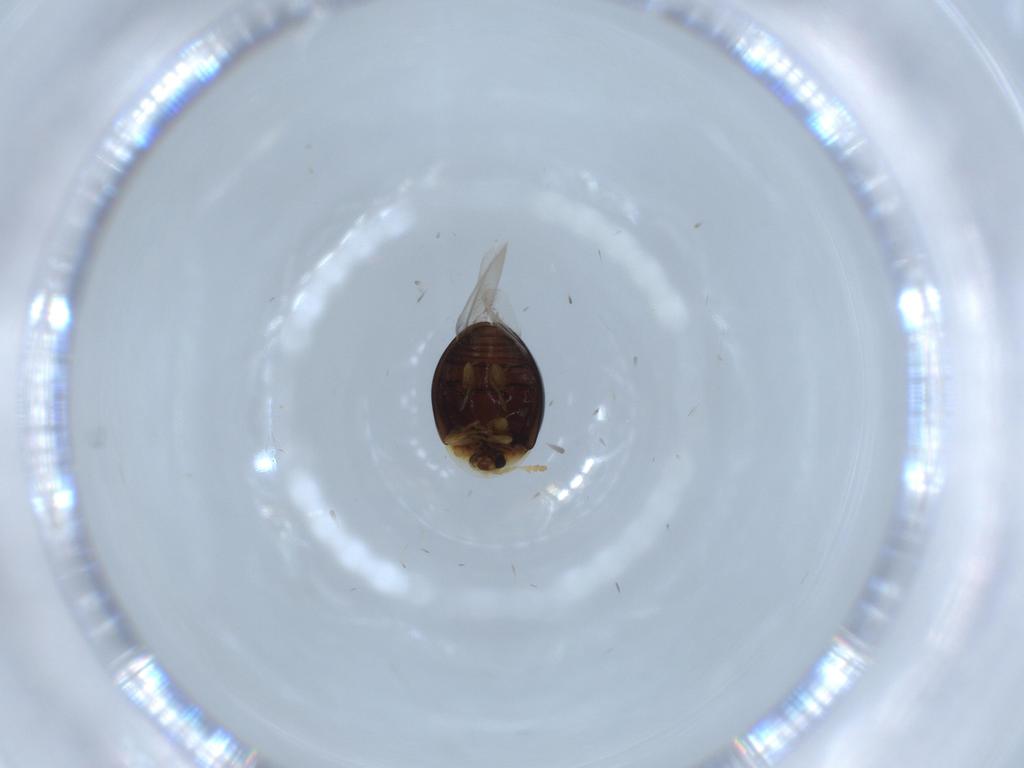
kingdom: Animalia
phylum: Arthropoda
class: Insecta
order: Coleoptera
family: Corylophidae
